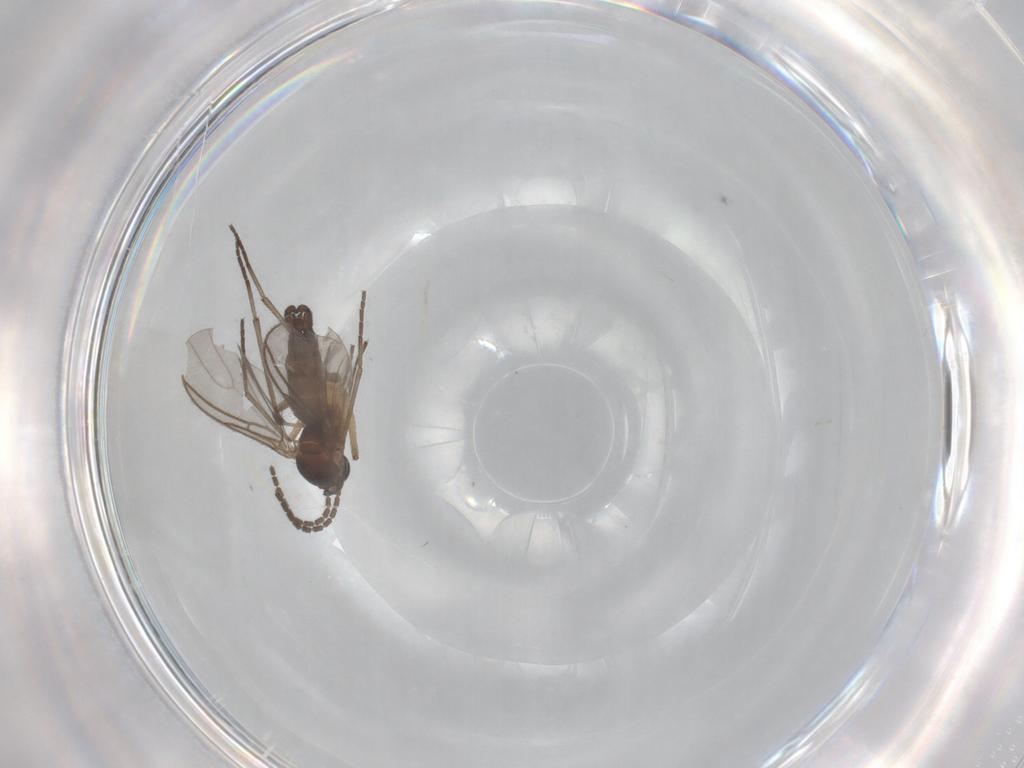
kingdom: Animalia
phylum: Arthropoda
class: Insecta
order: Diptera
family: Sciaridae
